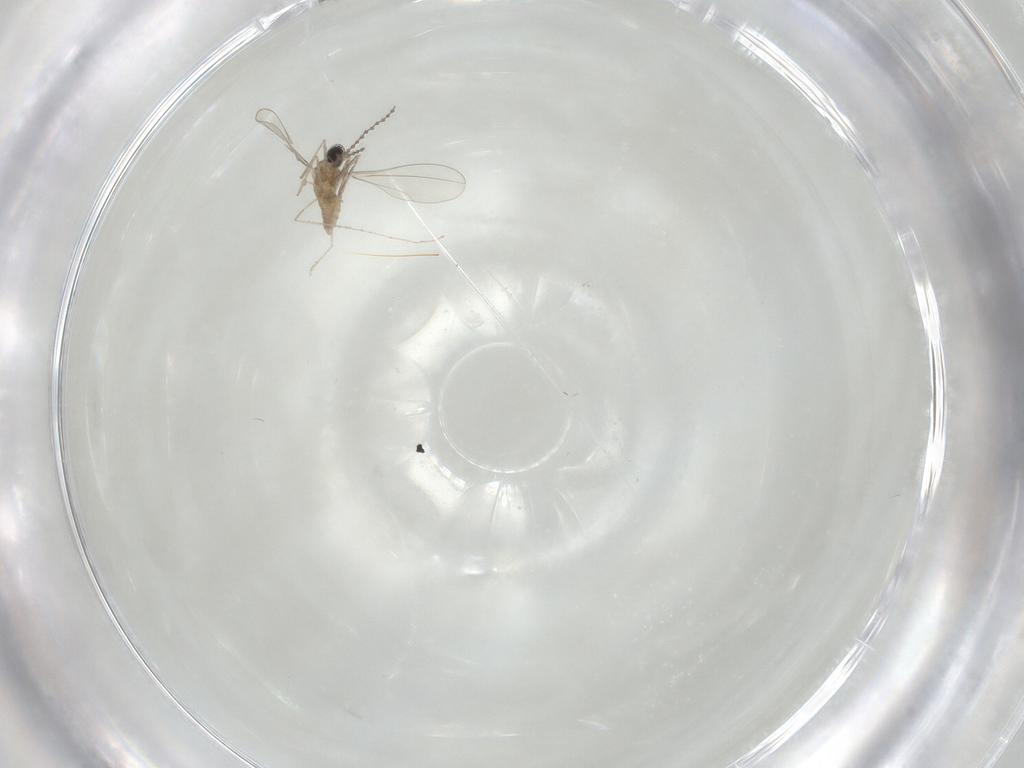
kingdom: Animalia
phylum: Arthropoda
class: Insecta
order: Diptera
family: Cecidomyiidae
